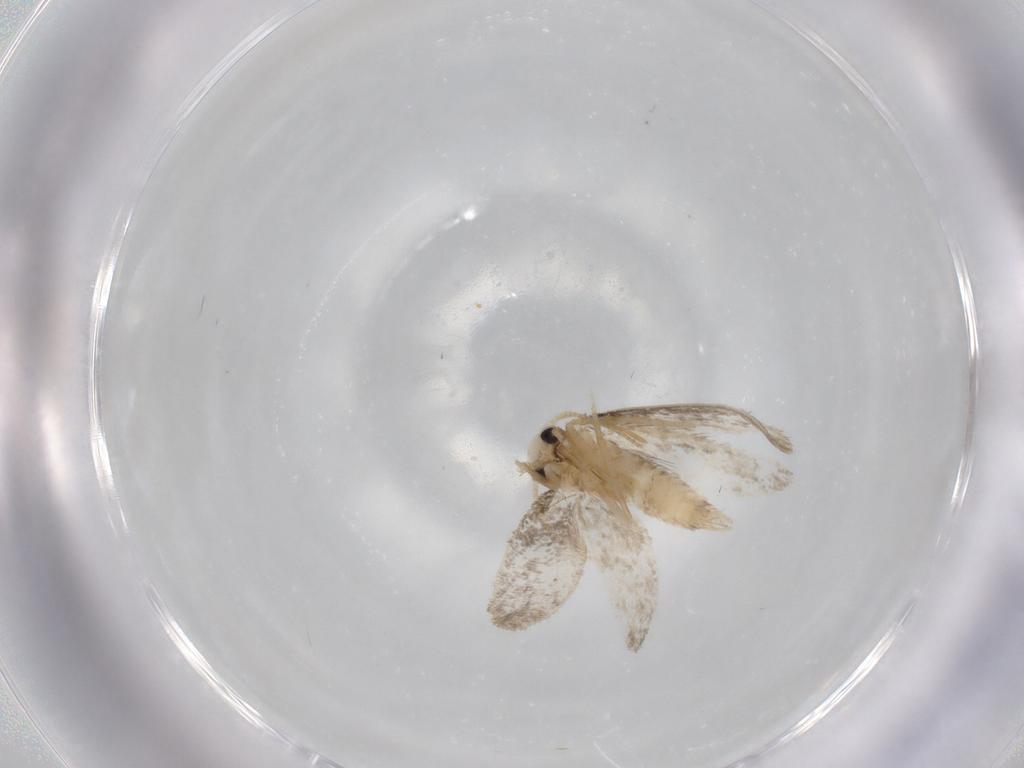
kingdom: Animalia
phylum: Arthropoda
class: Insecta
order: Lepidoptera
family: Psychidae
